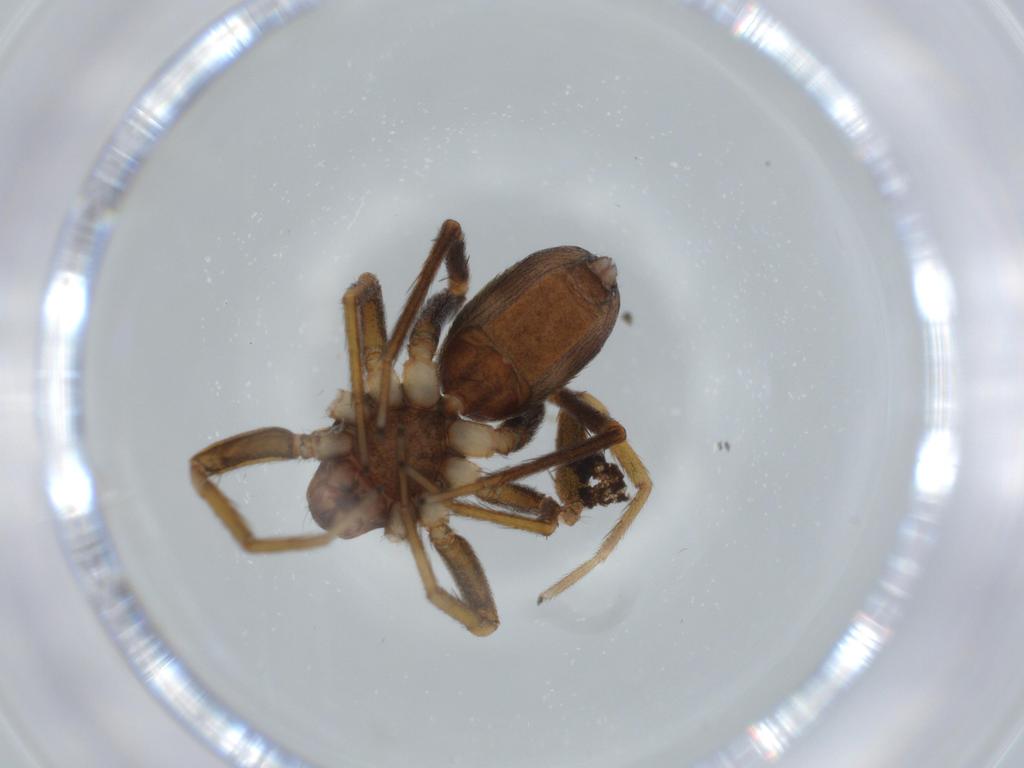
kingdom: Animalia
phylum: Arthropoda
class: Arachnida
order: Araneae
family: Corinnidae
